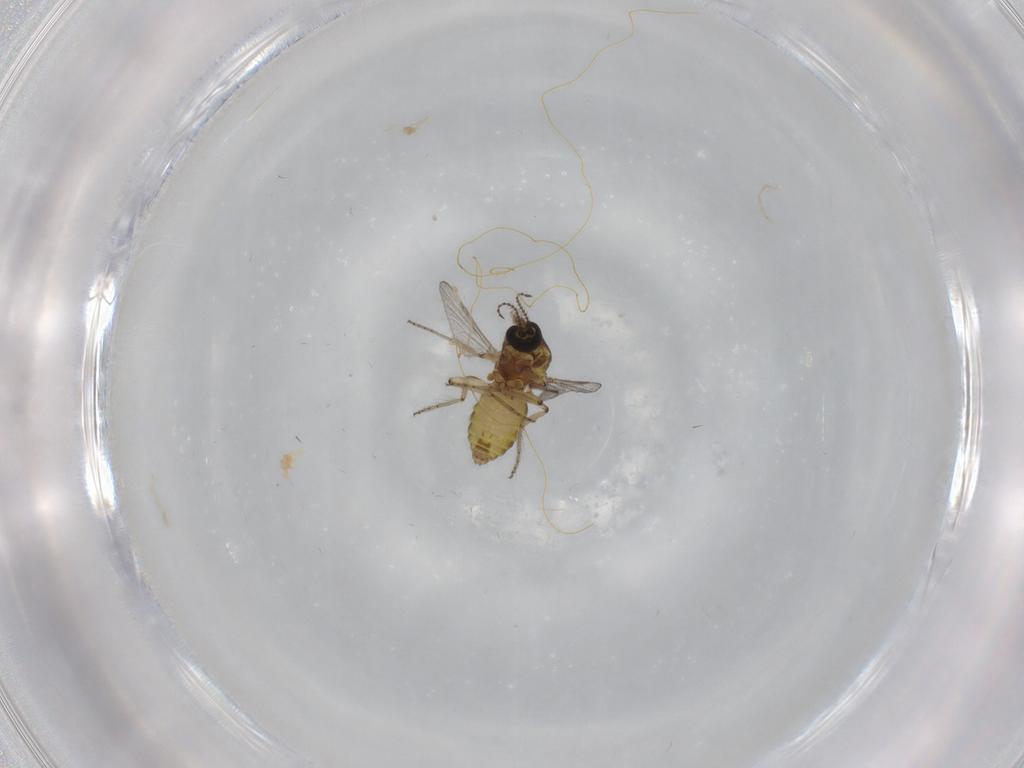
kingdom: Animalia
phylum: Arthropoda
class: Insecta
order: Diptera
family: Ceratopogonidae
